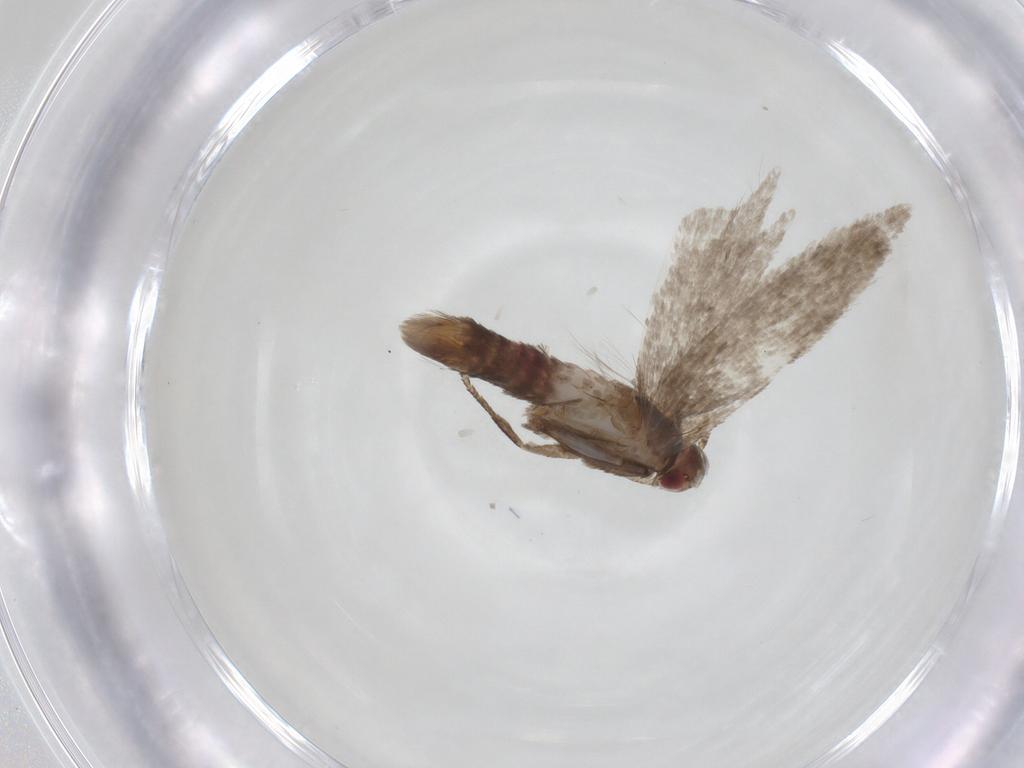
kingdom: Animalia
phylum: Arthropoda
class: Insecta
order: Lepidoptera
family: Gelechiidae
